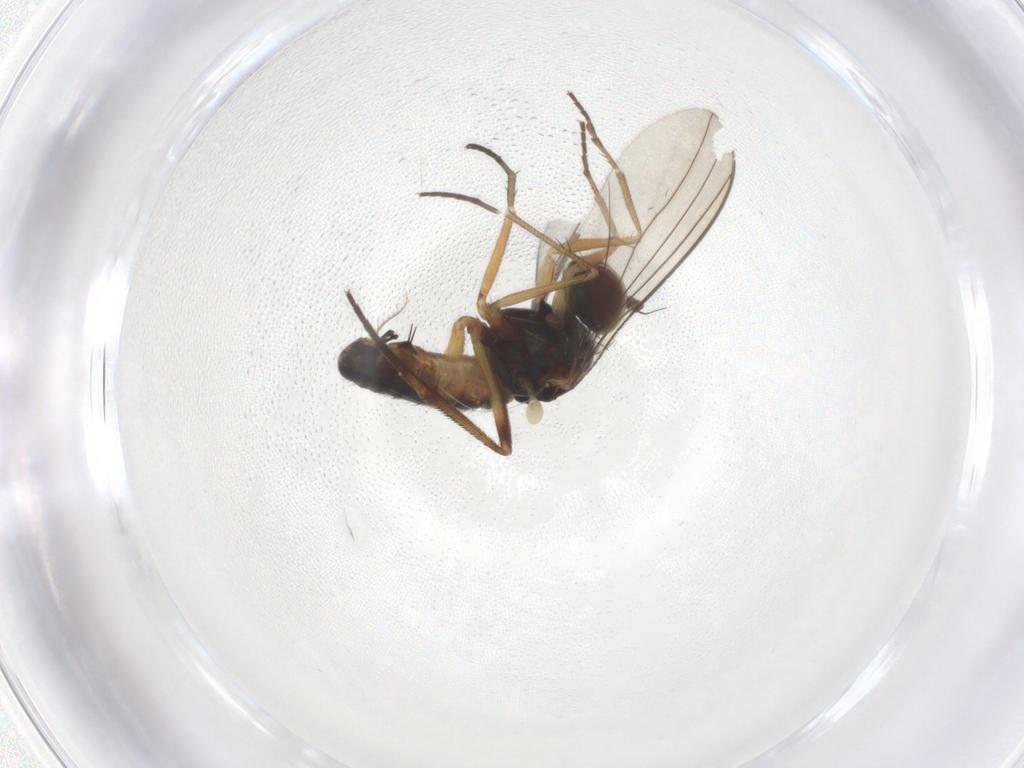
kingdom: Animalia
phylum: Arthropoda
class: Insecta
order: Diptera
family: Dolichopodidae
